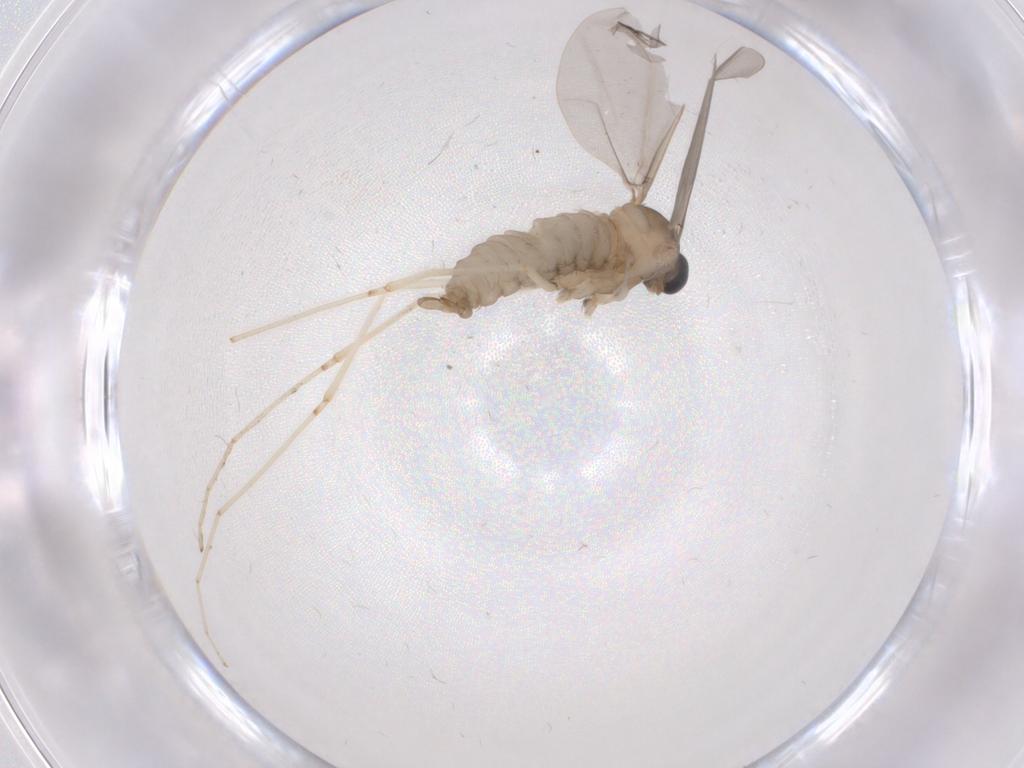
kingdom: Animalia
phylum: Arthropoda
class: Insecta
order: Diptera
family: Cecidomyiidae
